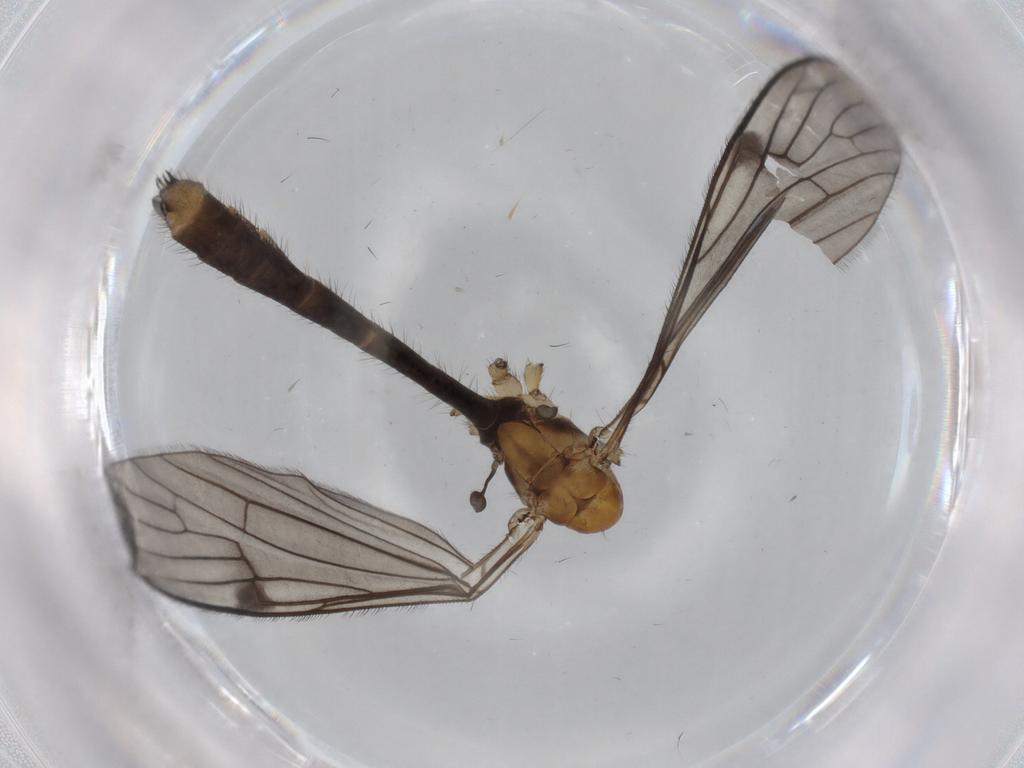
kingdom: Animalia
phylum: Arthropoda
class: Insecta
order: Diptera
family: Limoniidae
